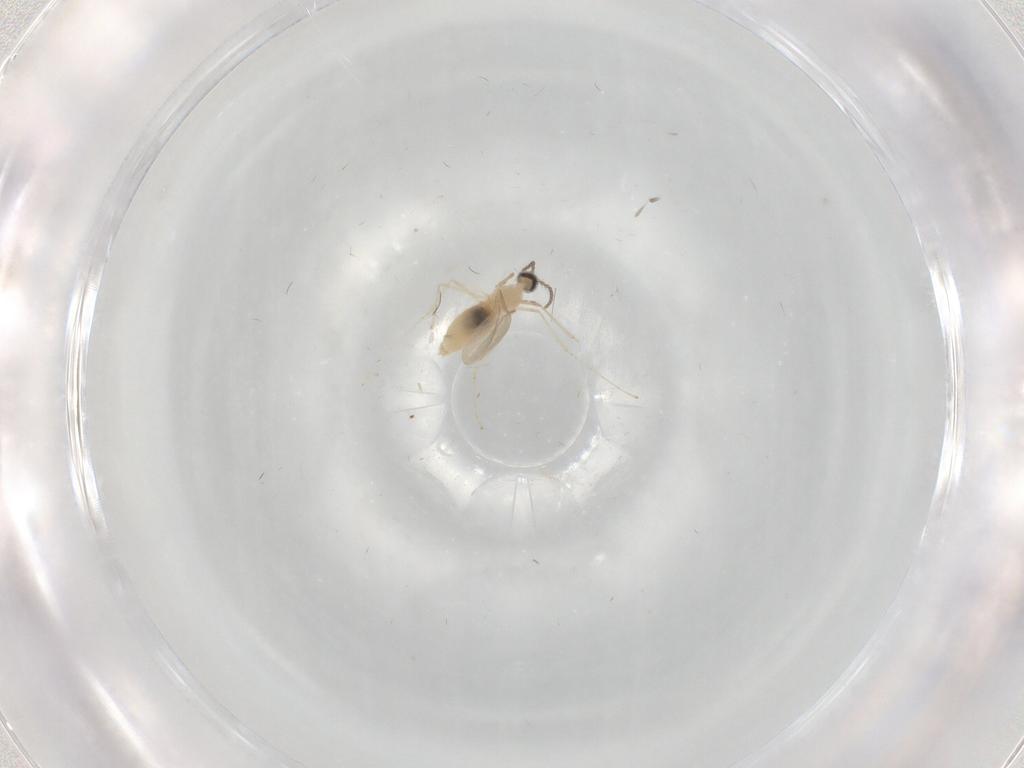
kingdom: Animalia
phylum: Arthropoda
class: Insecta
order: Diptera
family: Cecidomyiidae
